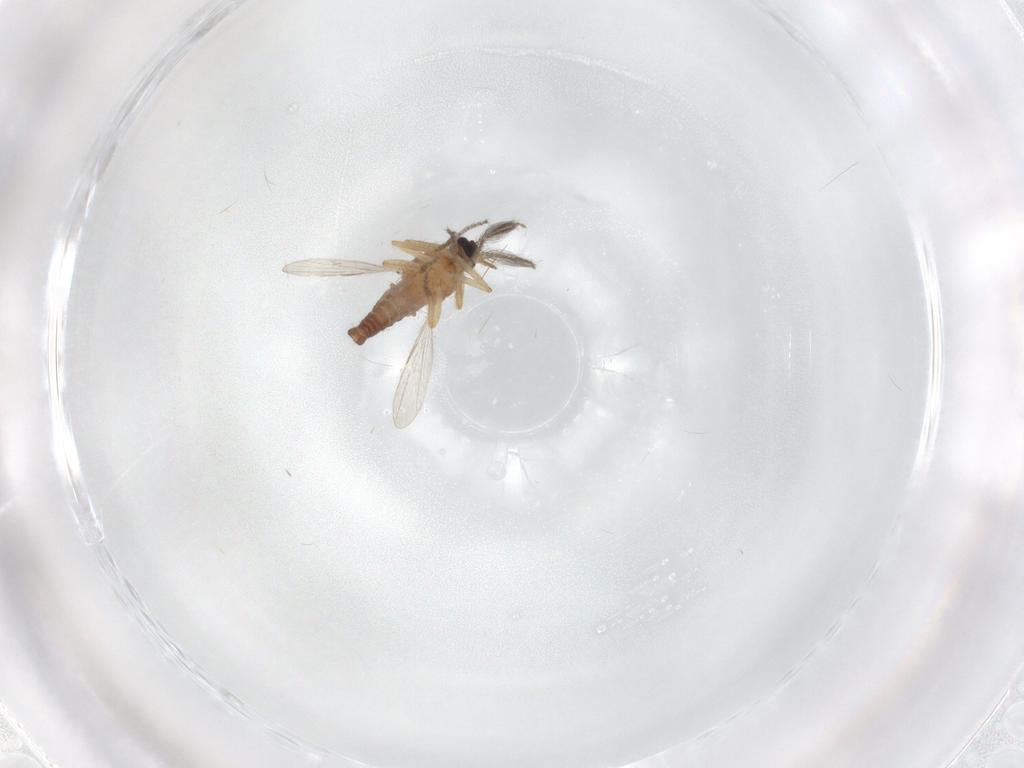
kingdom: Animalia
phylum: Arthropoda
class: Insecta
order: Diptera
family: Ceratopogonidae
